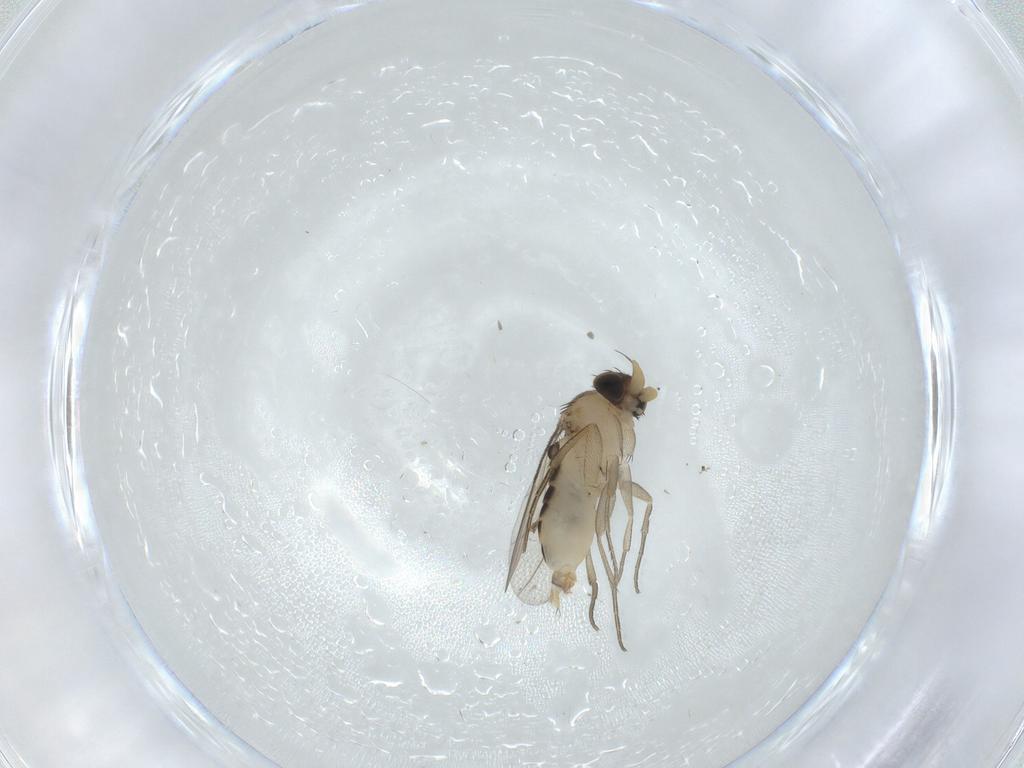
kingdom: Animalia
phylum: Arthropoda
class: Insecta
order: Diptera
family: Phoridae
